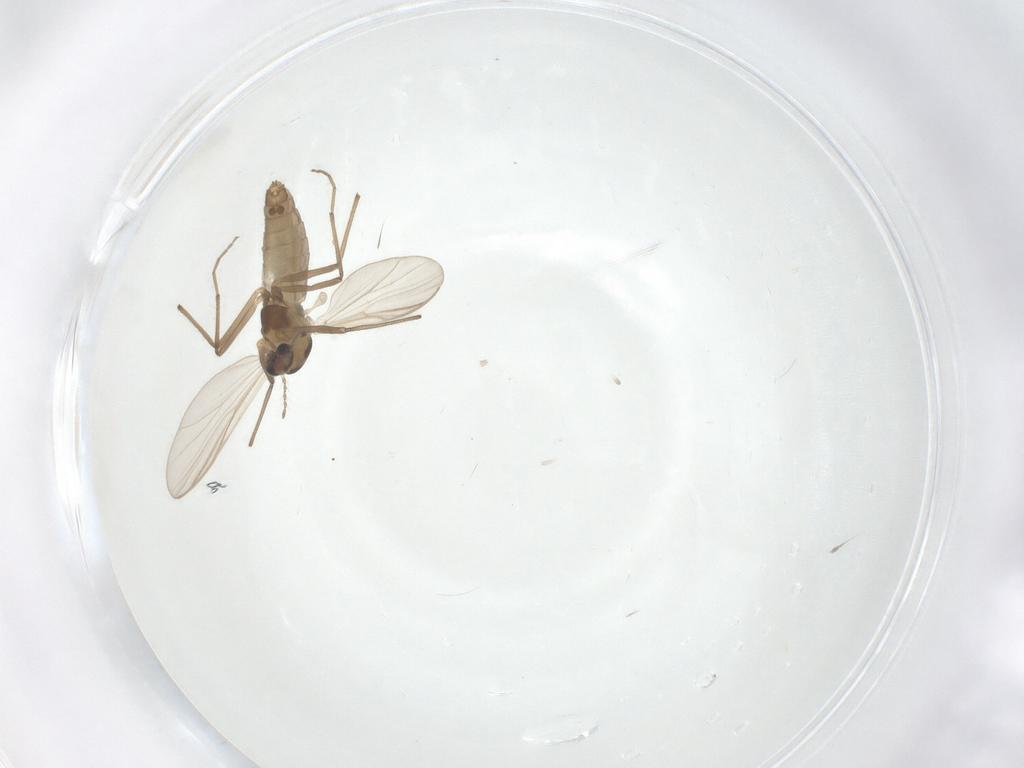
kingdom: Animalia
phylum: Arthropoda
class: Insecta
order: Diptera
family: Chironomidae
